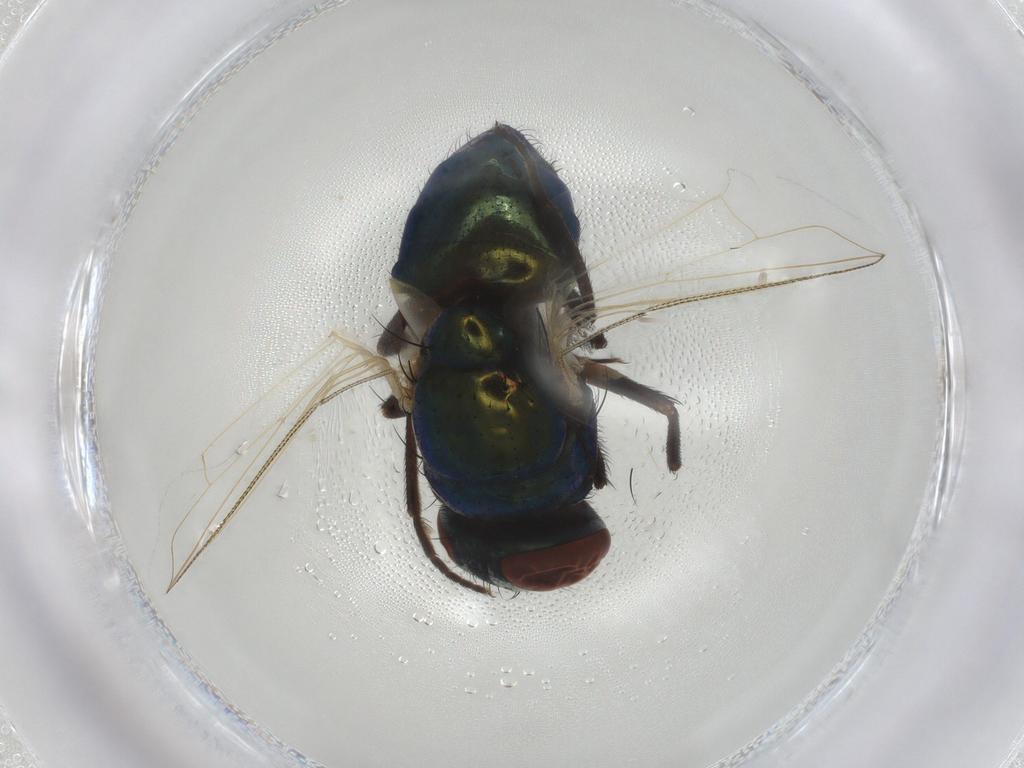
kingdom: Animalia
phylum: Arthropoda
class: Insecta
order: Diptera
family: Muscidae
